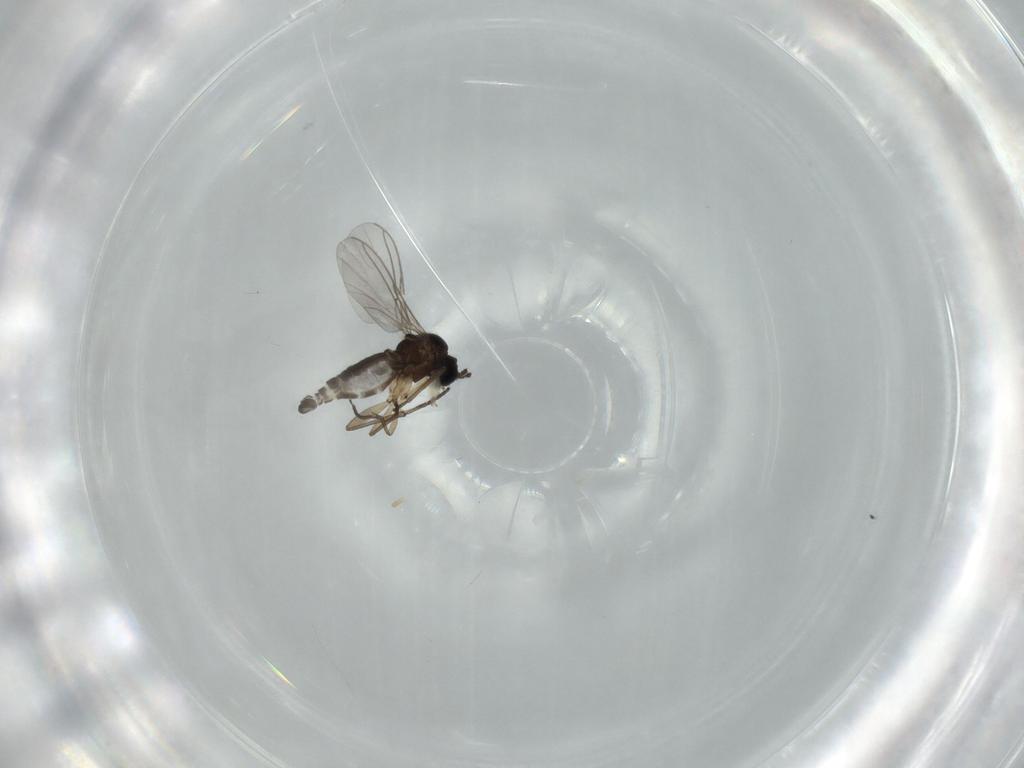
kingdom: Animalia
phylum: Arthropoda
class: Insecta
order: Diptera
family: Sciaridae
